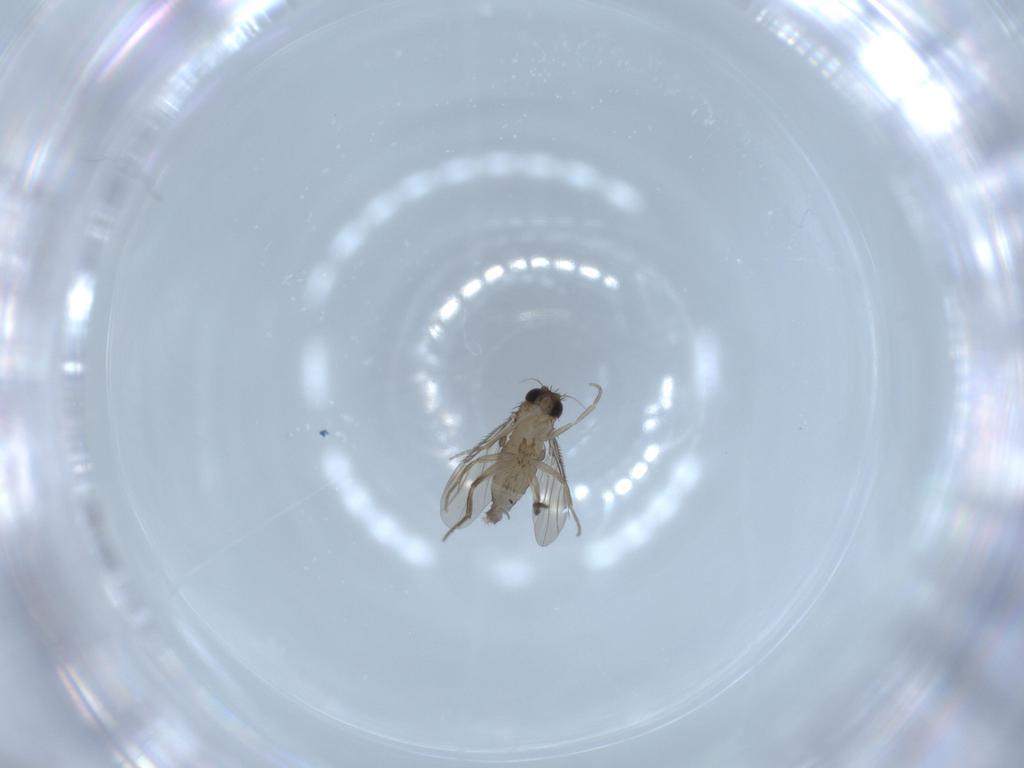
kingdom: Animalia
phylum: Arthropoda
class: Insecta
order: Diptera
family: Phoridae
